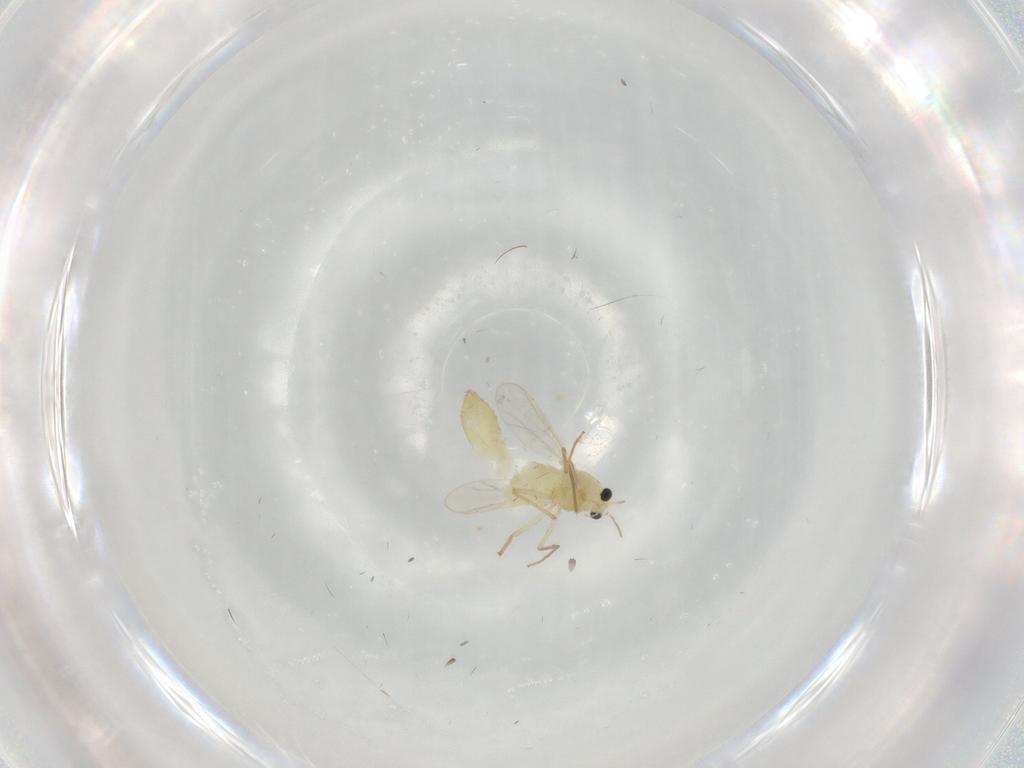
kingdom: Animalia
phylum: Arthropoda
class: Insecta
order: Diptera
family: Chironomidae
